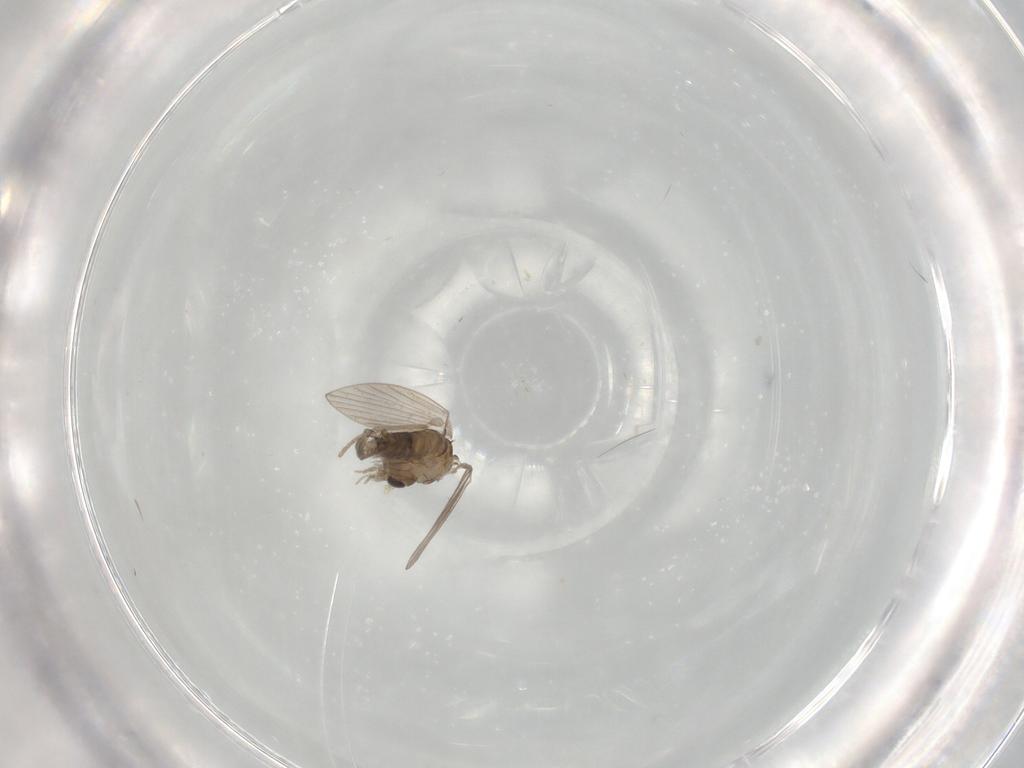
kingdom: Animalia
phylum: Arthropoda
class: Insecta
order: Diptera
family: Psychodidae
